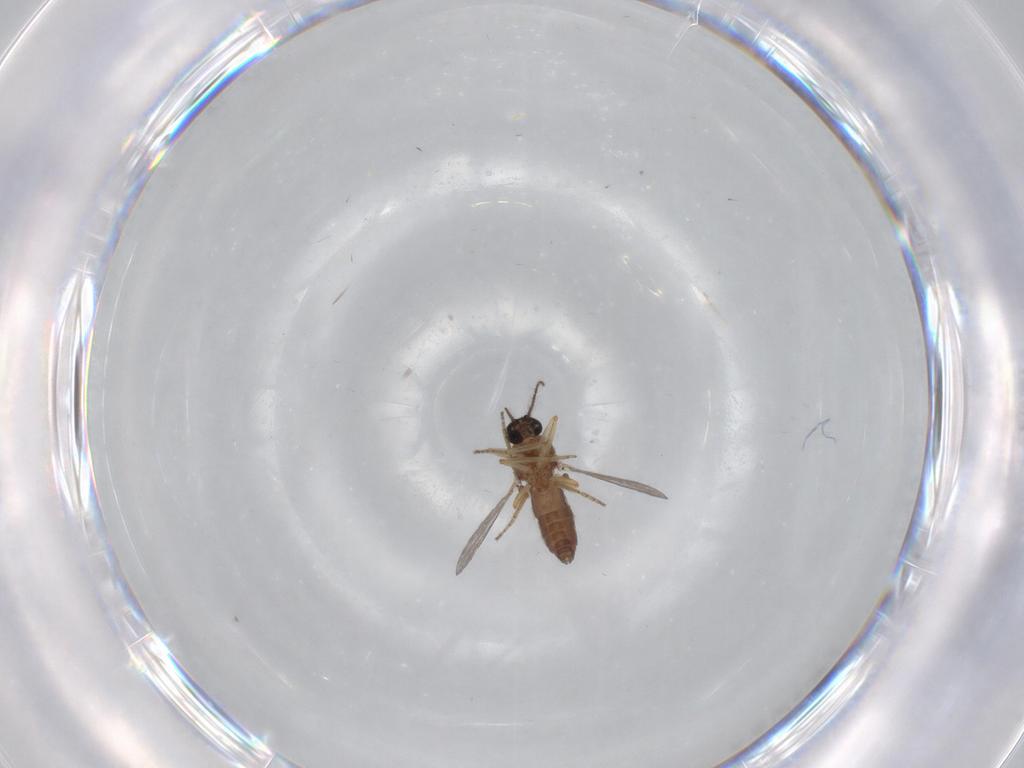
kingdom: Animalia
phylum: Arthropoda
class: Insecta
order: Diptera
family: Ceratopogonidae
